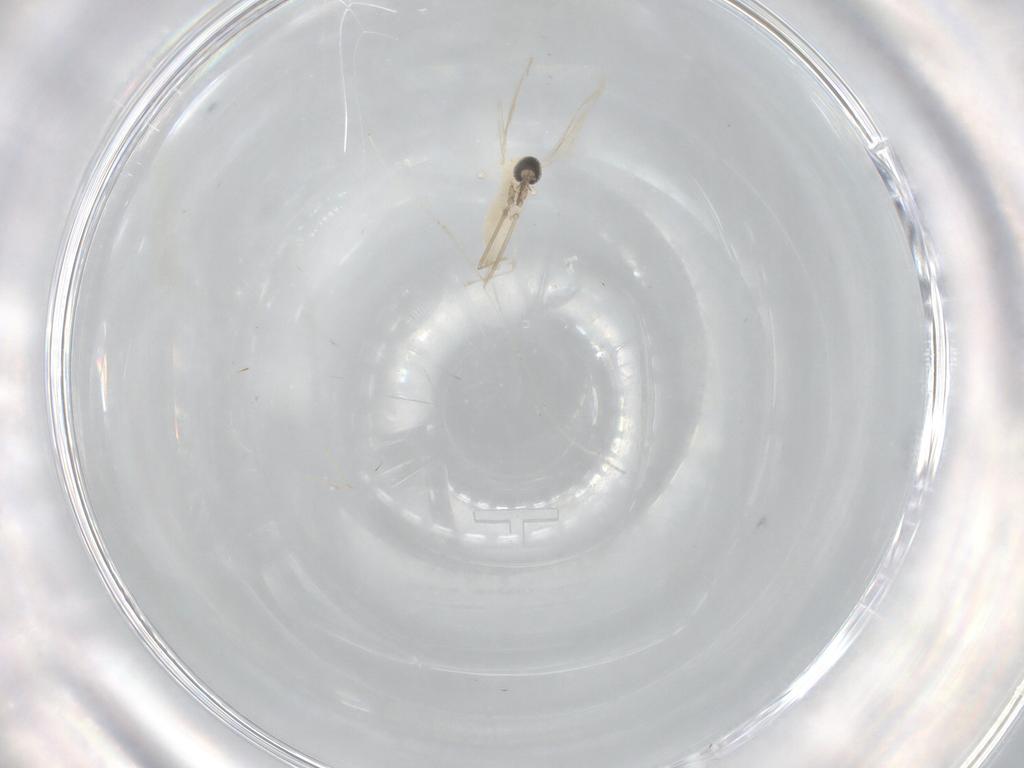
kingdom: Animalia
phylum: Arthropoda
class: Insecta
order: Diptera
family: Cecidomyiidae
